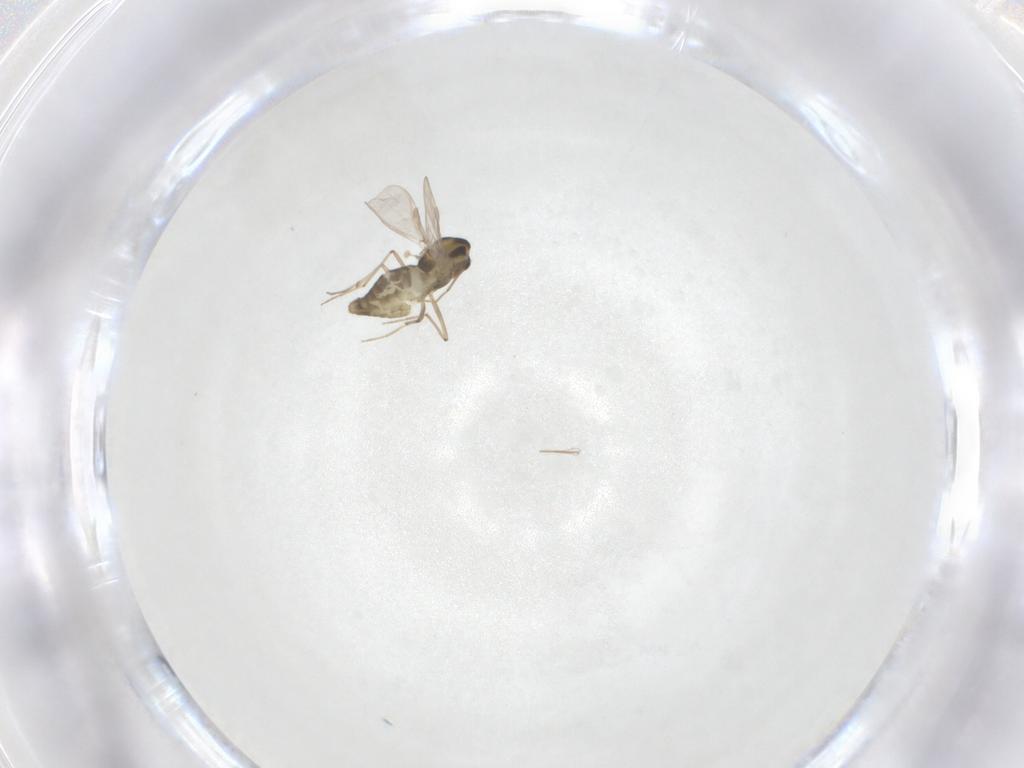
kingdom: Animalia
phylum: Arthropoda
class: Insecta
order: Diptera
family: Chironomidae
